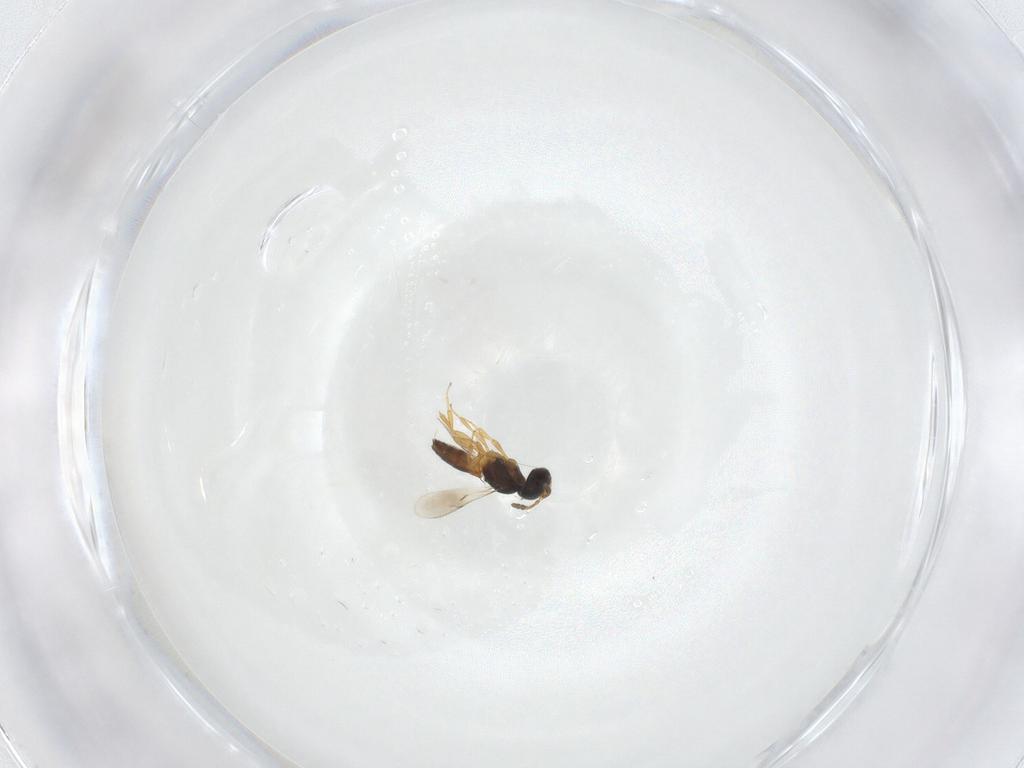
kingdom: Animalia
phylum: Arthropoda
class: Insecta
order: Hymenoptera
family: Scelionidae
